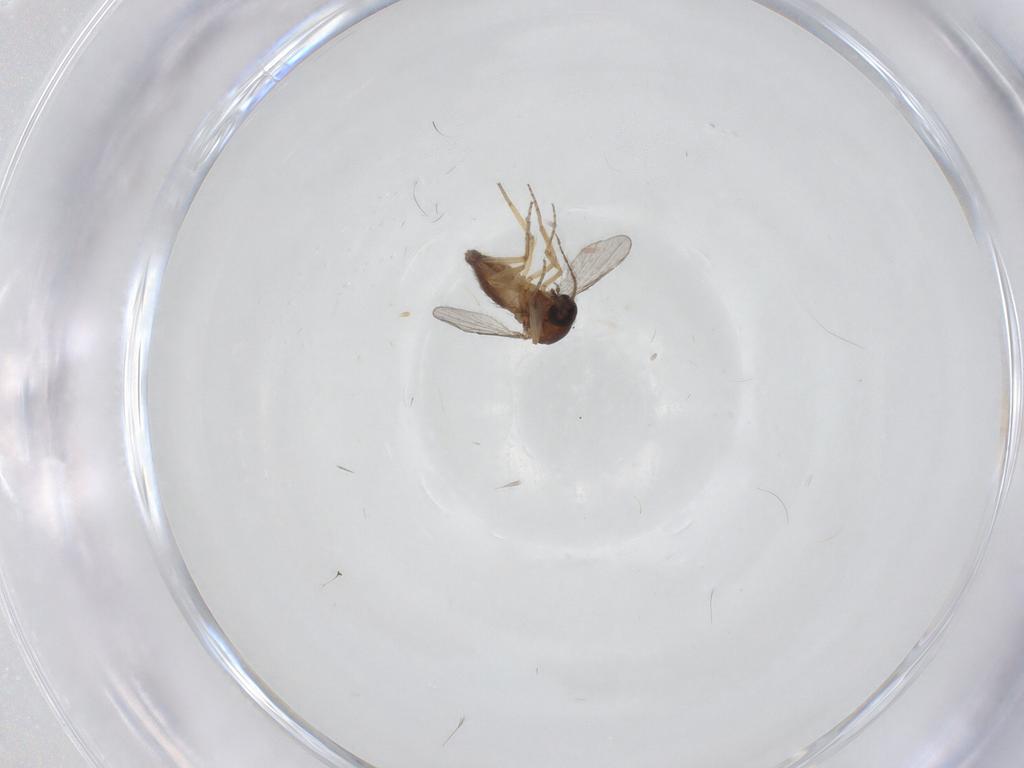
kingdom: Animalia
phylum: Arthropoda
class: Insecta
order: Diptera
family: Ceratopogonidae
